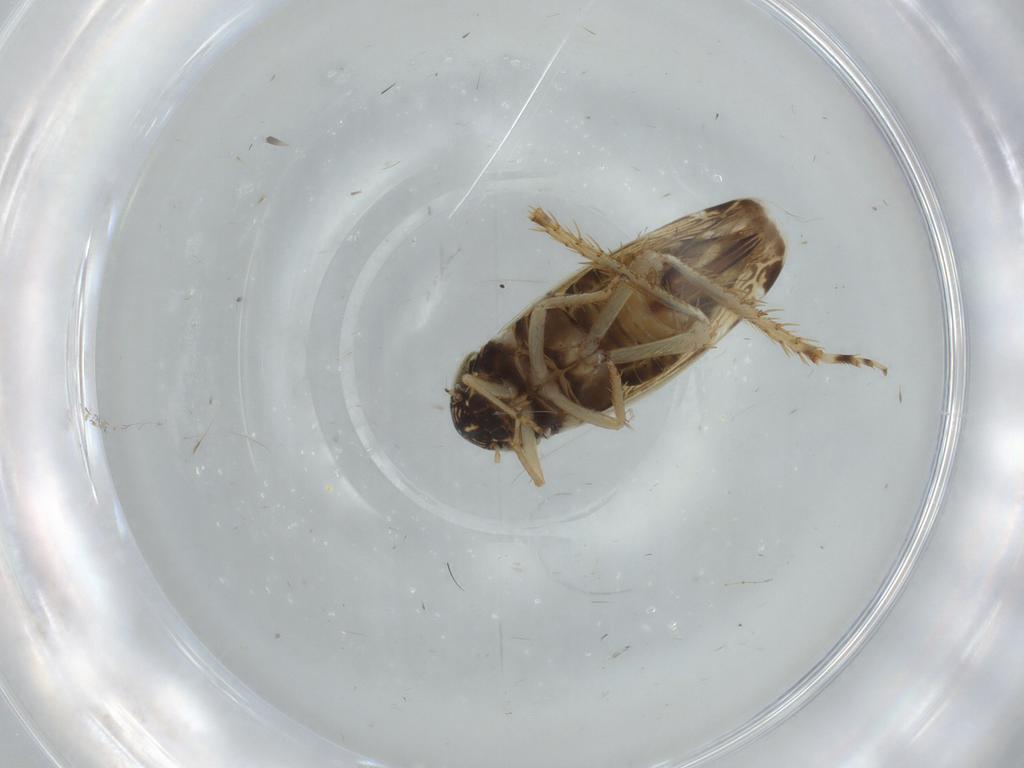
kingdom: Animalia
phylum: Arthropoda
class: Insecta
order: Hemiptera
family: Cicadellidae
